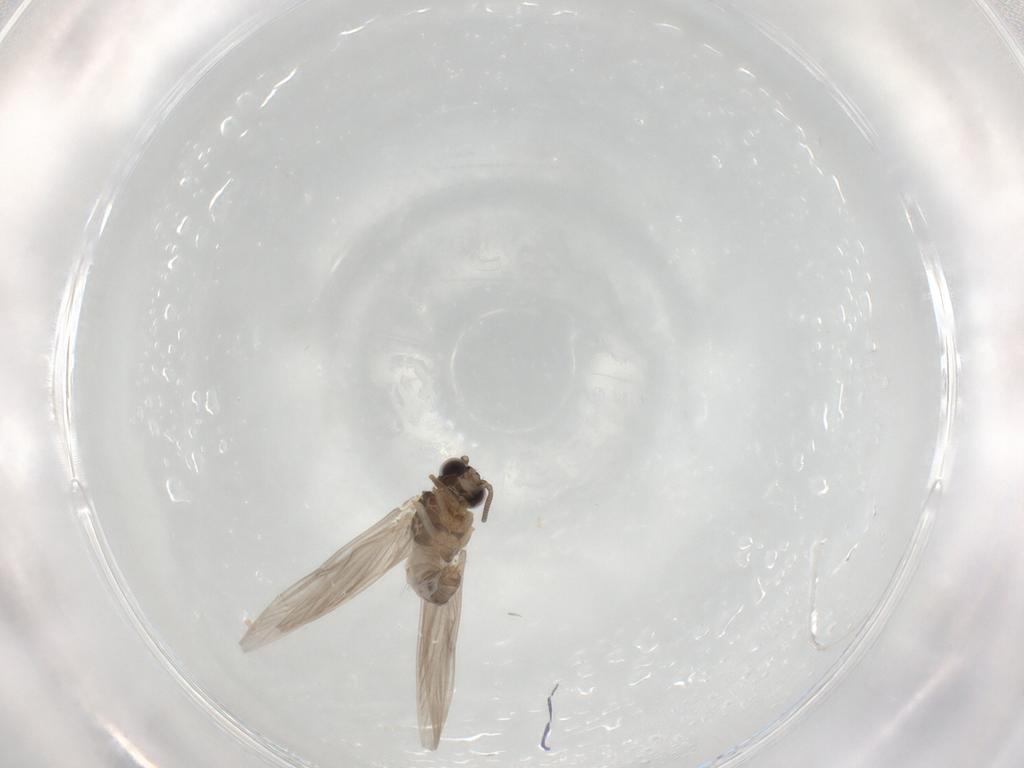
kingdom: Animalia
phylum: Arthropoda
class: Insecta
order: Trichoptera
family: Hydroptilidae
